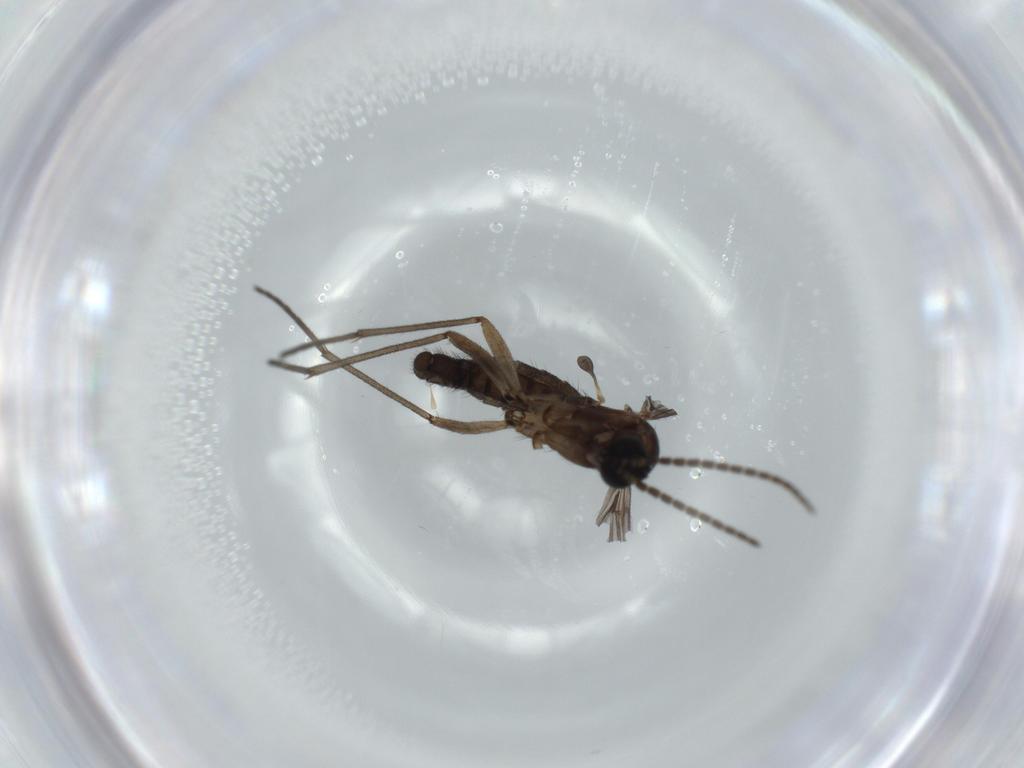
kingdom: Animalia
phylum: Arthropoda
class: Insecta
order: Diptera
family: Sciaridae
